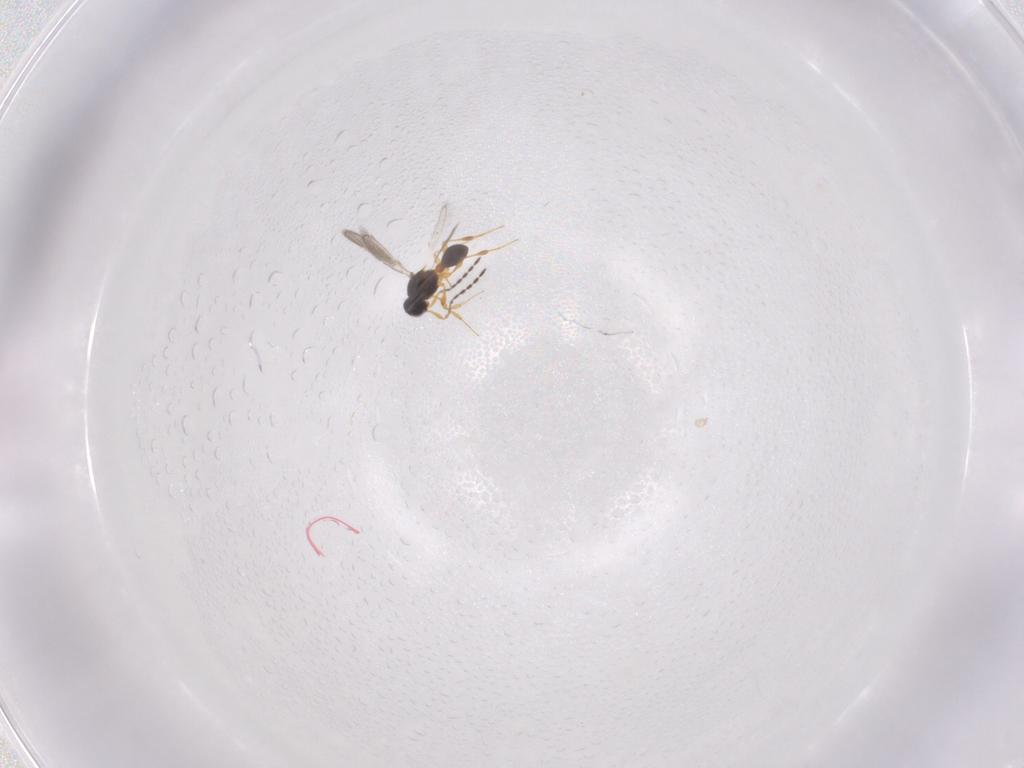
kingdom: Animalia
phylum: Arthropoda
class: Insecta
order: Hymenoptera
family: Platygastridae
